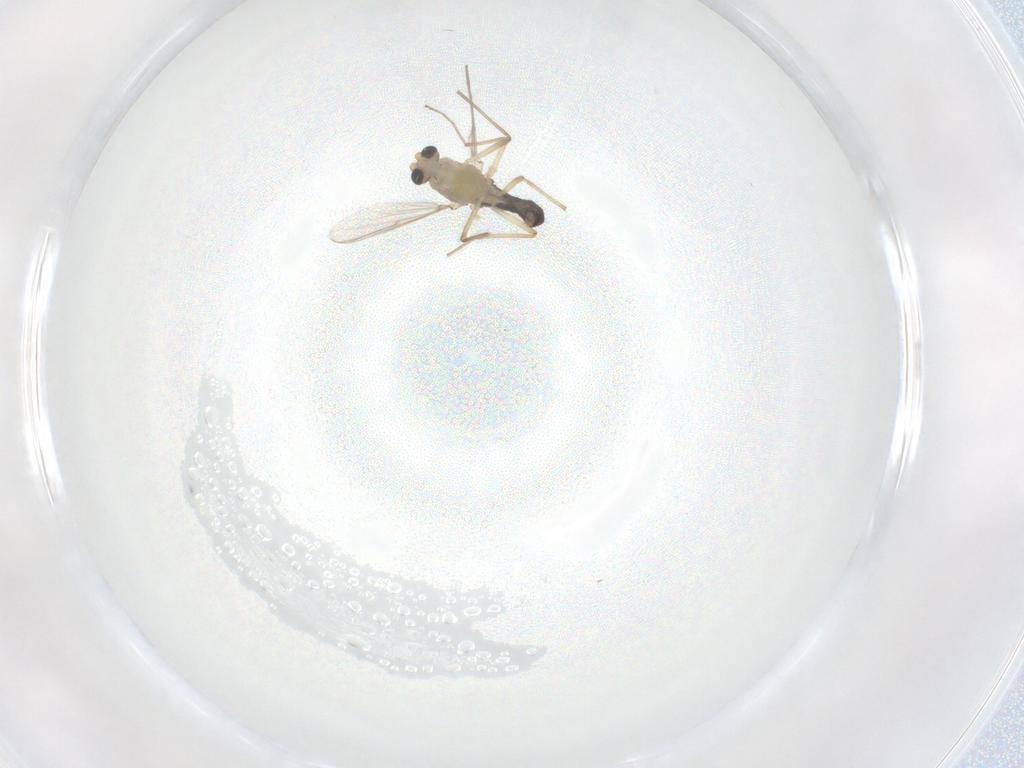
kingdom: Animalia
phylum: Arthropoda
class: Insecta
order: Diptera
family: Chironomidae
